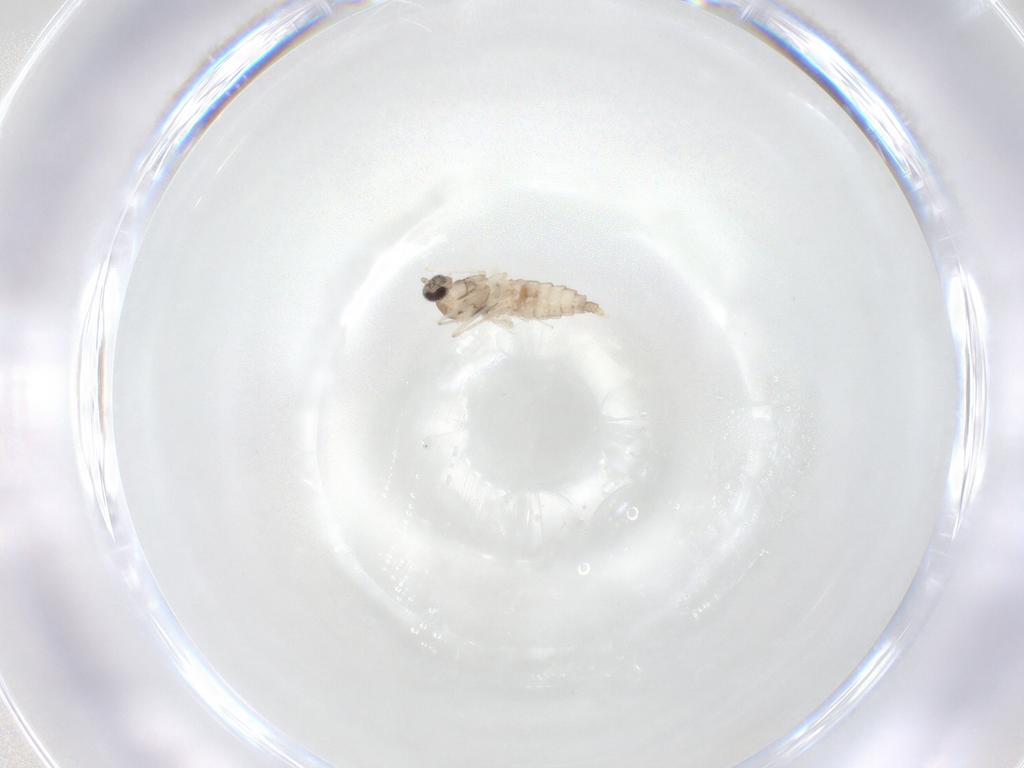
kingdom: Animalia
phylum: Arthropoda
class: Insecta
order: Diptera
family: Cecidomyiidae
